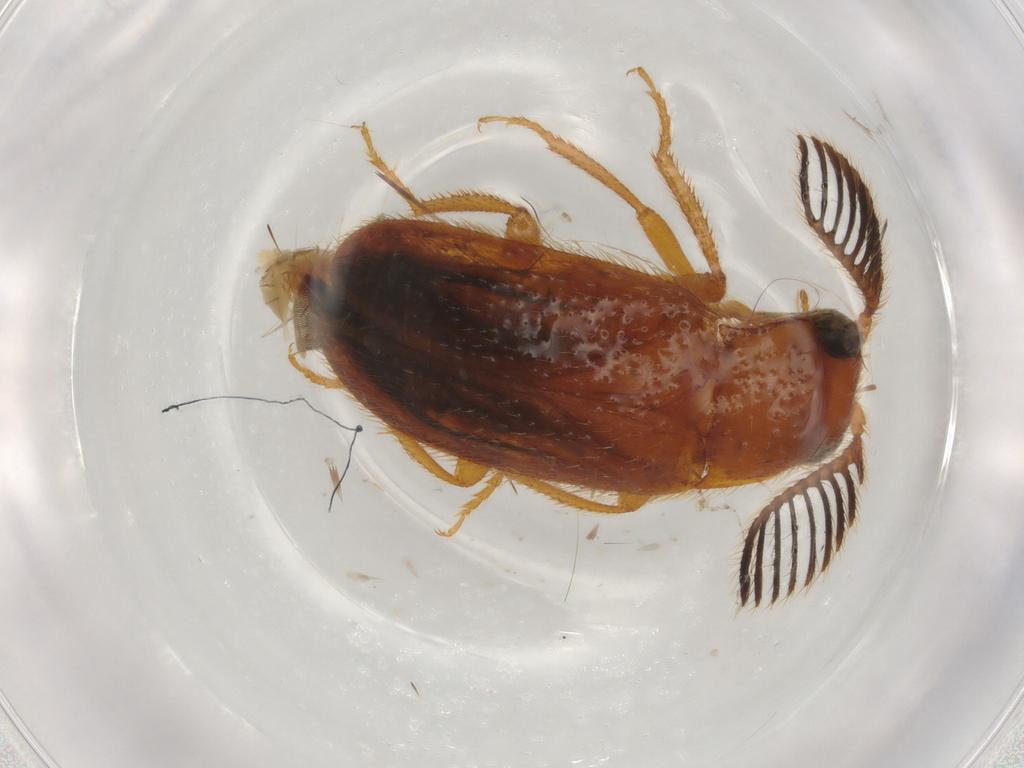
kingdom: Animalia
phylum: Arthropoda
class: Insecta
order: Coleoptera
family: Elateridae
